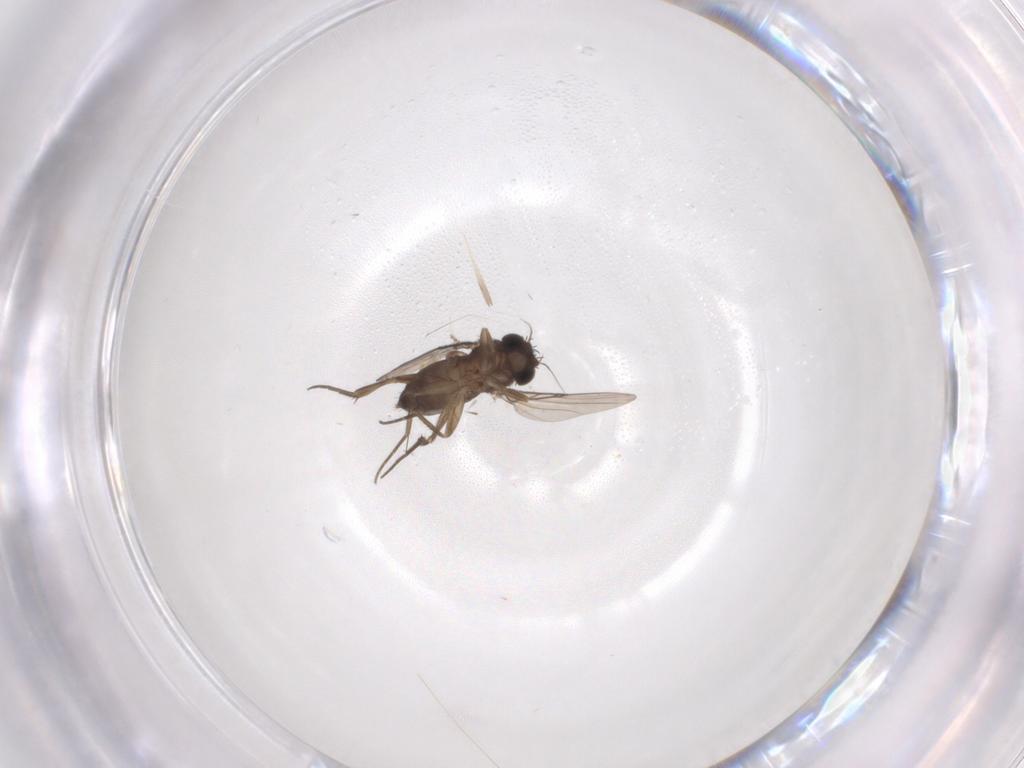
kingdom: Animalia
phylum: Arthropoda
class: Insecta
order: Diptera
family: Phoridae
